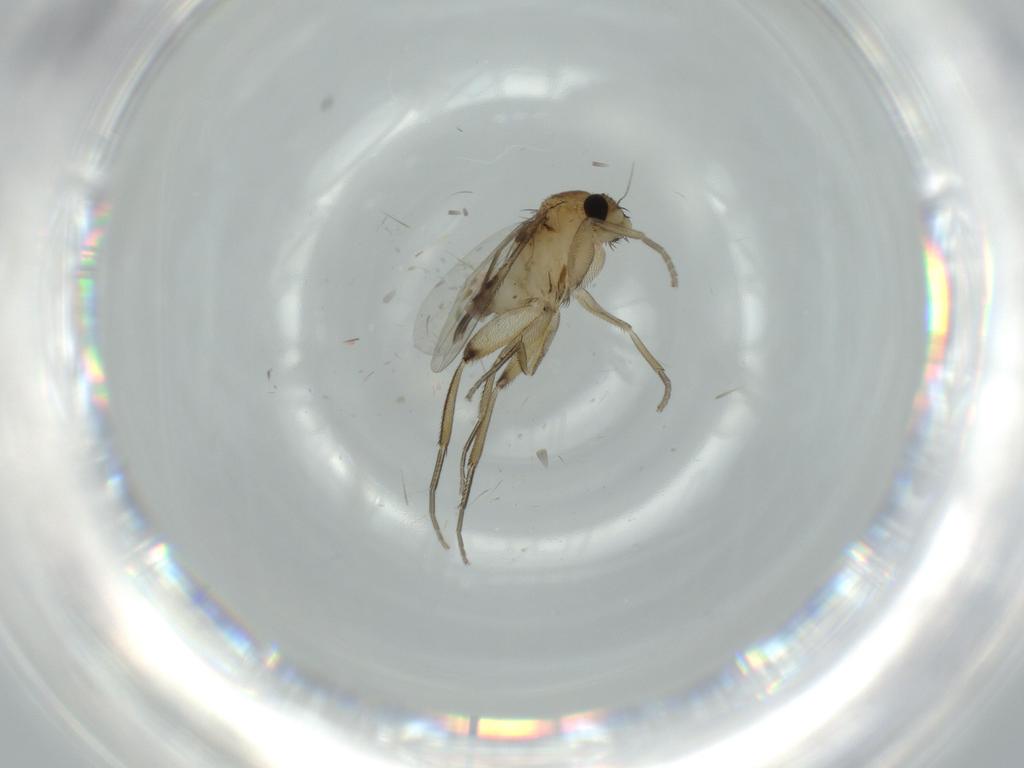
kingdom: Animalia
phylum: Arthropoda
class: Insecta
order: Diptera
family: Phoridae
